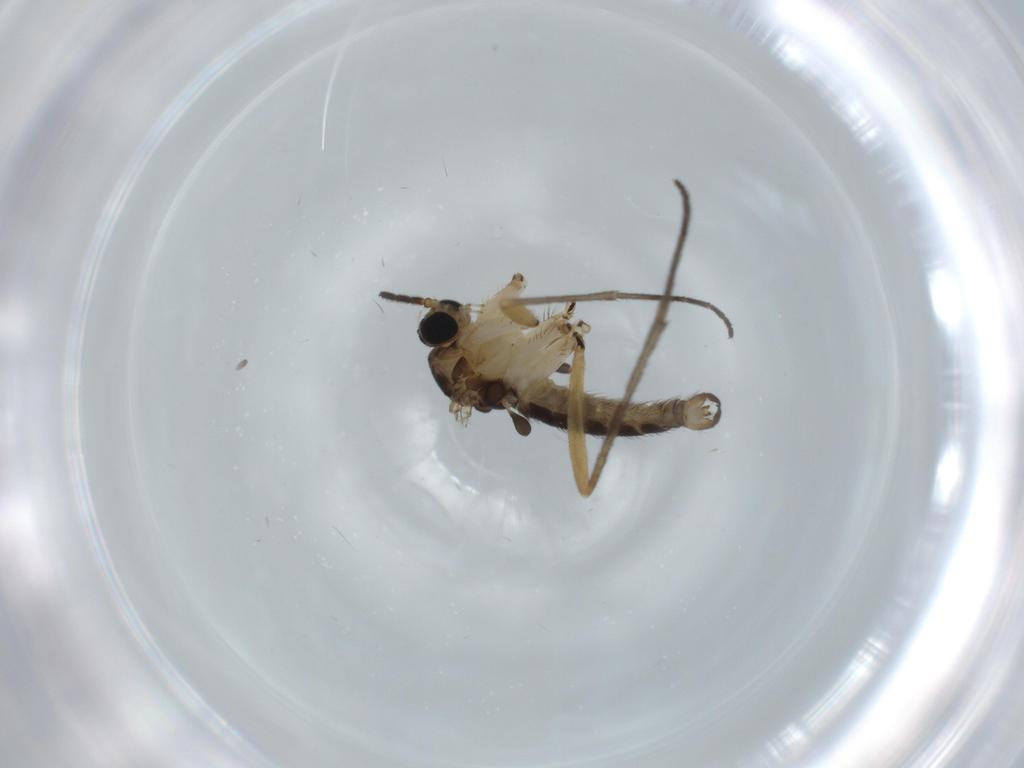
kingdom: Animalia
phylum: Arthropoda
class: Insecta
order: Diptera
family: Sciaridae
